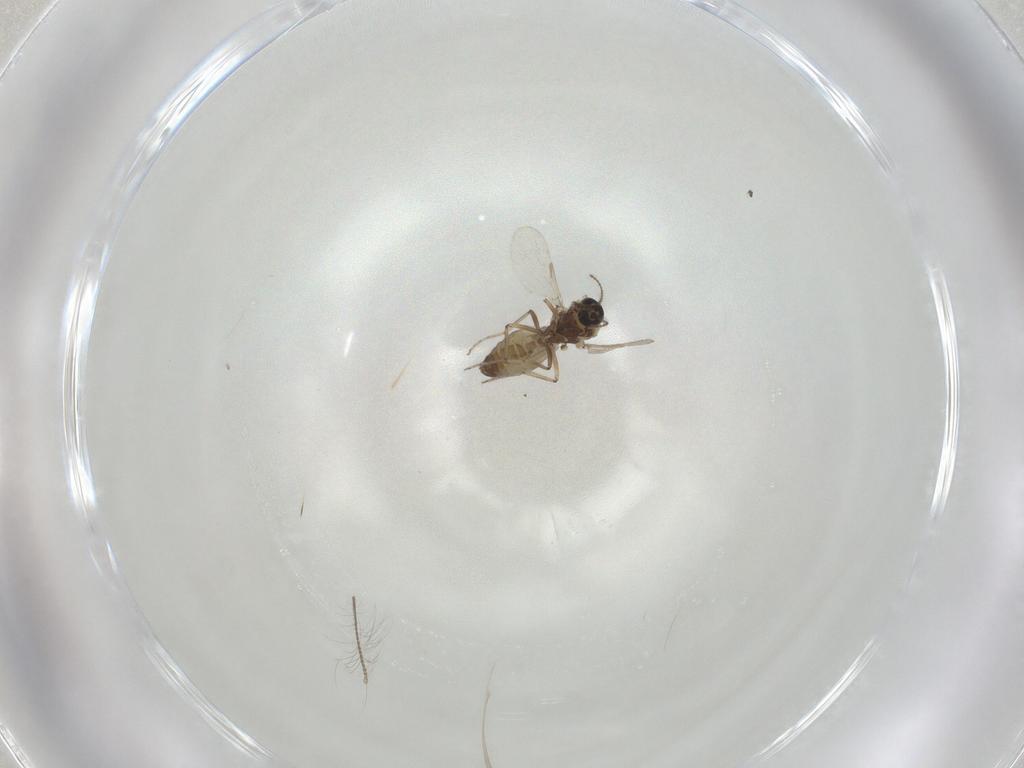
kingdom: Animalia
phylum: Arthropoda
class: Insecta
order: Diptera
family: Ceratopogonidae
